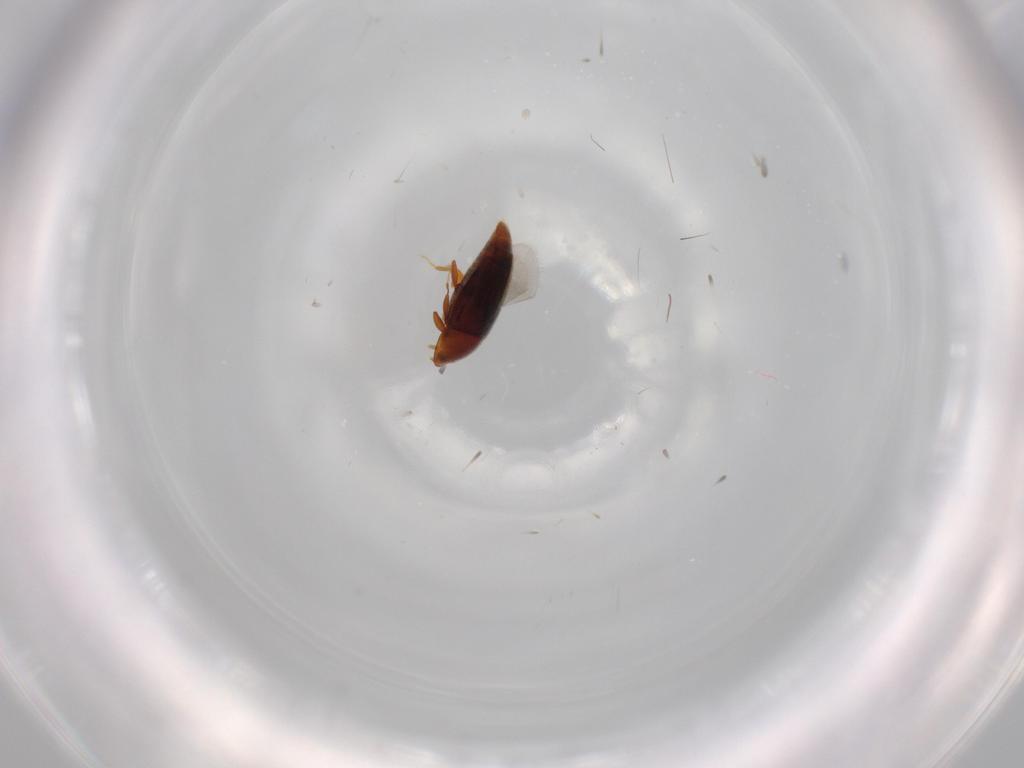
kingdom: Animalia
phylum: Arthropoda
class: Insecta
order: Coleoptera
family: Corylophidae
